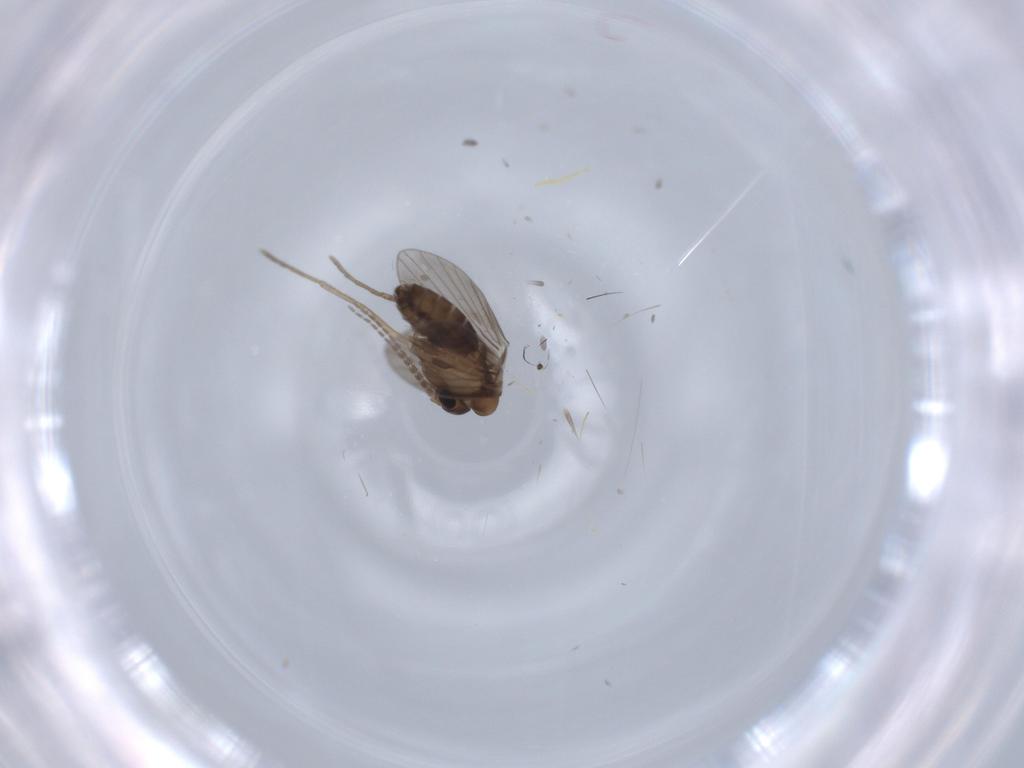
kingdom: Animalia
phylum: Arthropoda
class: Insecta
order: Diptera
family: Psychodidae
